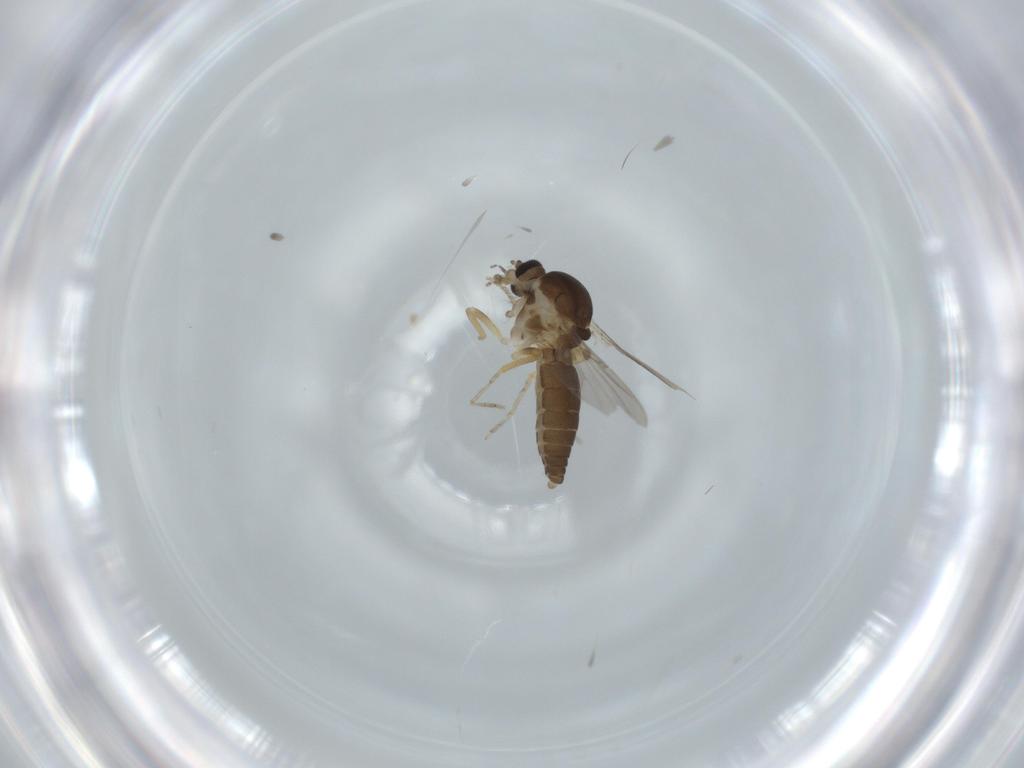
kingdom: Animalia
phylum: Arthropoda
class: Insecta
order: Diptera
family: Ceratopogonidae
